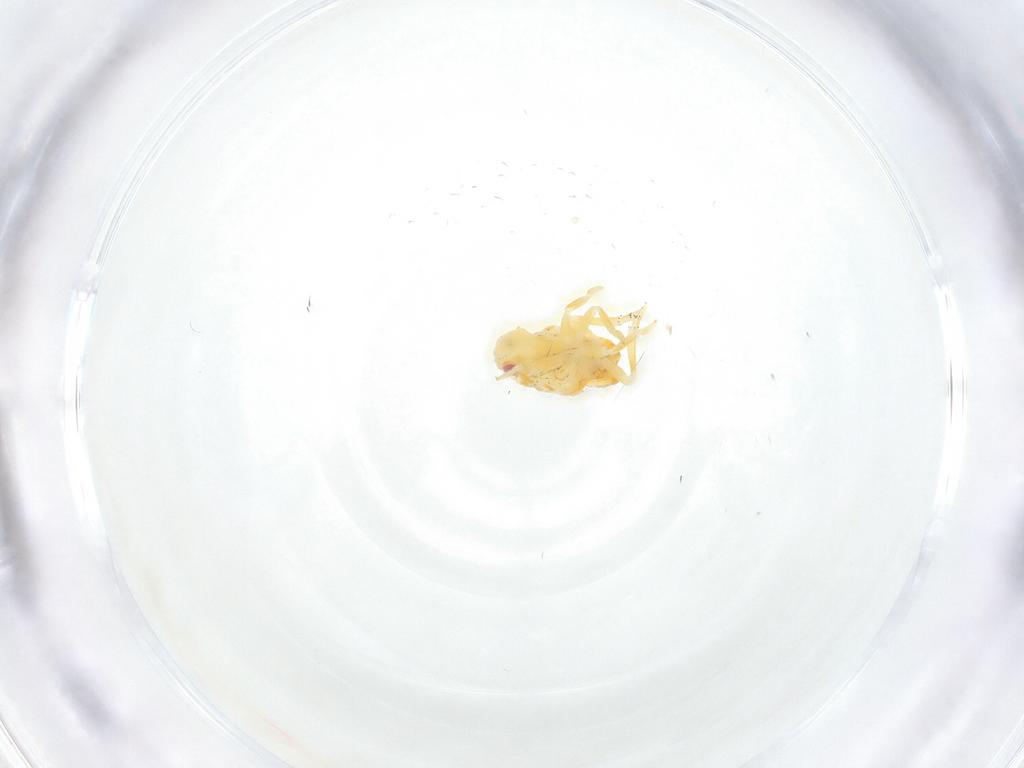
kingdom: Animalia
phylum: Arthropoda
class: Insecta
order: Hemiptera
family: Fulgoroidea_incertae_sedis
